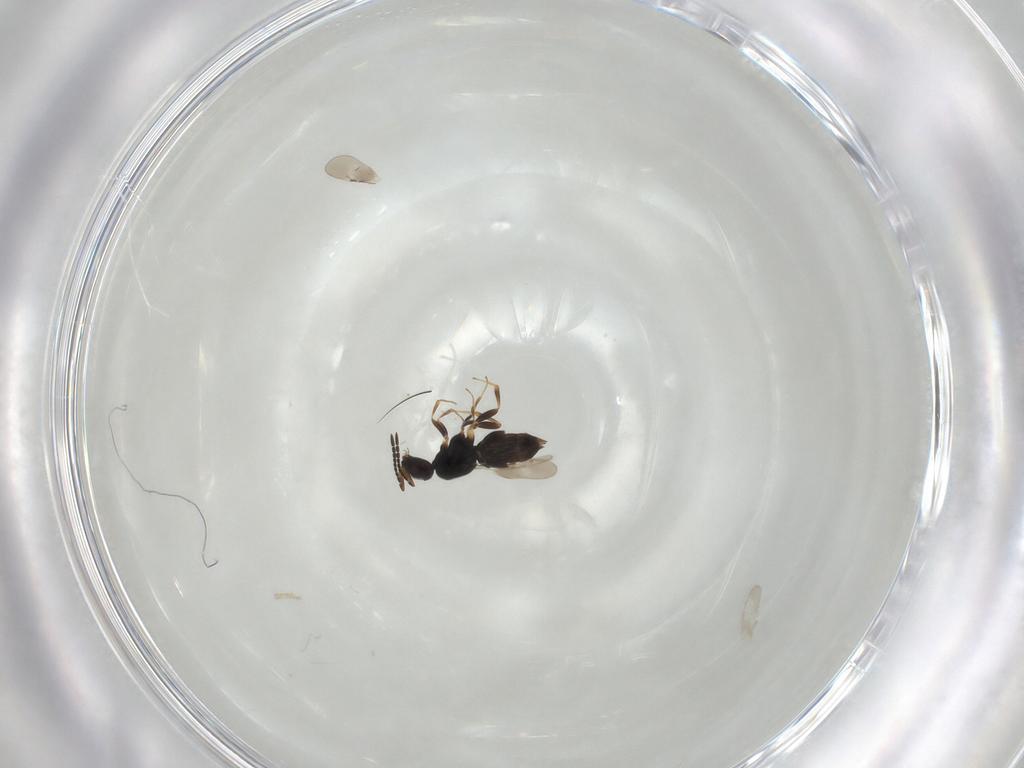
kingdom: Animalia
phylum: Arthropoda
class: Insecta
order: Hymenoptera
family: Ceraphronidae
